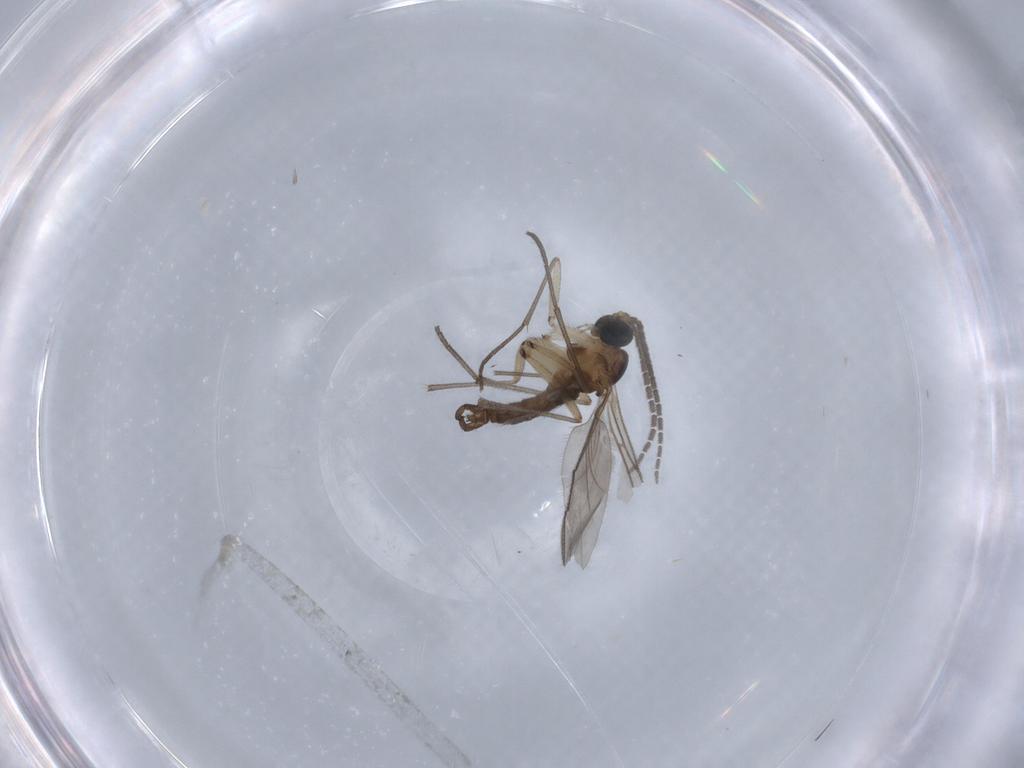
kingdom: Animalia
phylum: Arthropoda
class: Insecta
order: Diptera
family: Sciaridae
